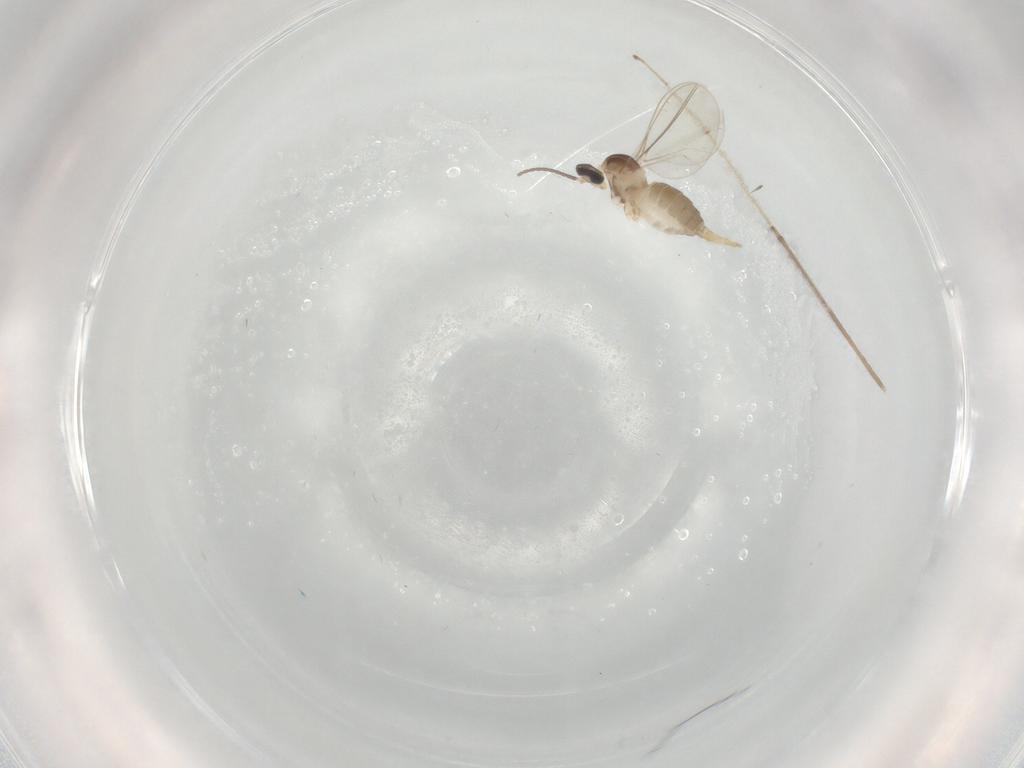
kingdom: Animalia
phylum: Arthropoda
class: Insecta
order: Diptera
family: Cecidomyiidae
